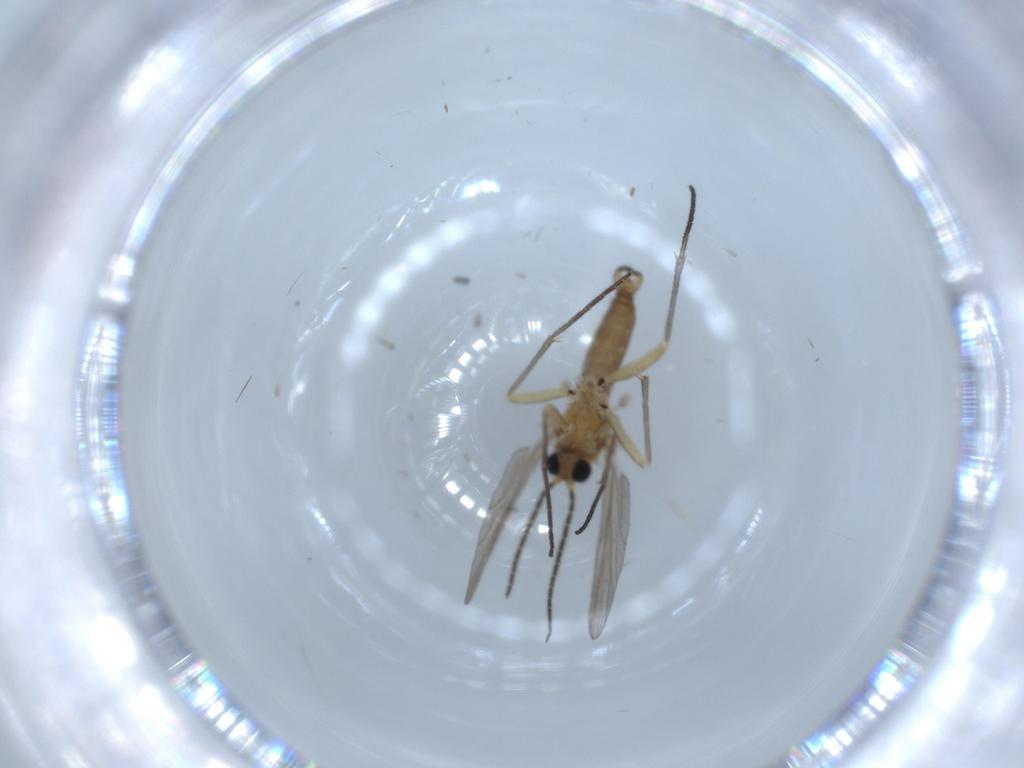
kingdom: Animalia
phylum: Arthropoda
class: Insecta
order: Diptera
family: Sciaridae
